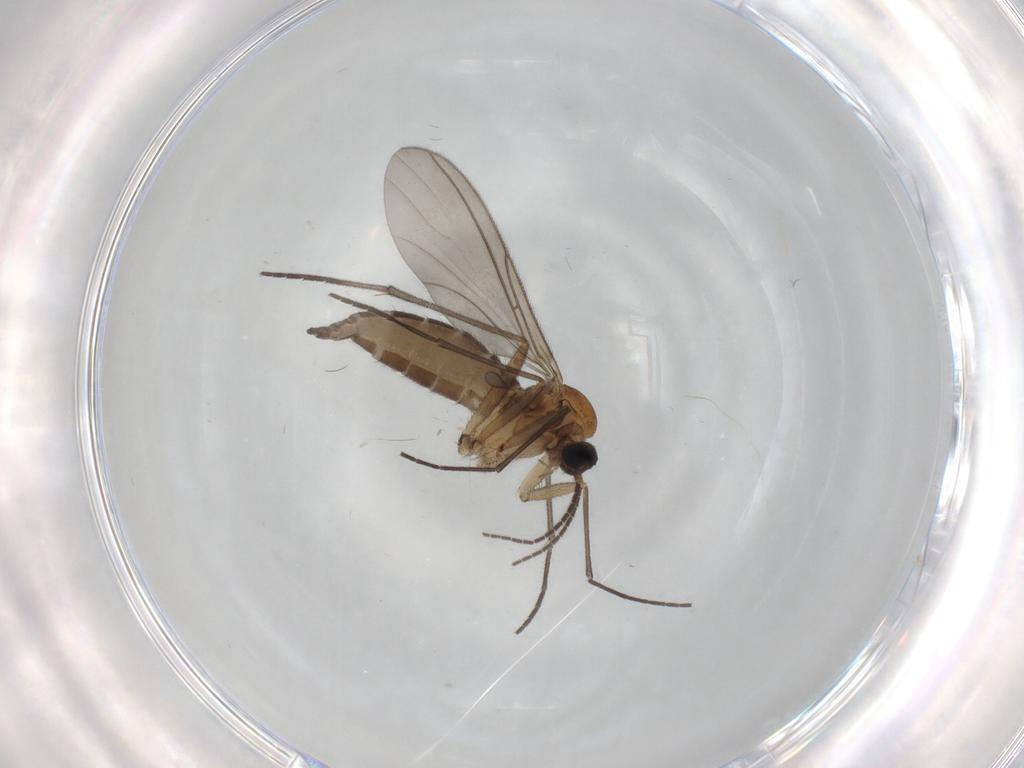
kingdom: Animalia
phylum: Arthropoda
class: Insecta
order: Diptera
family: Sciaridae
